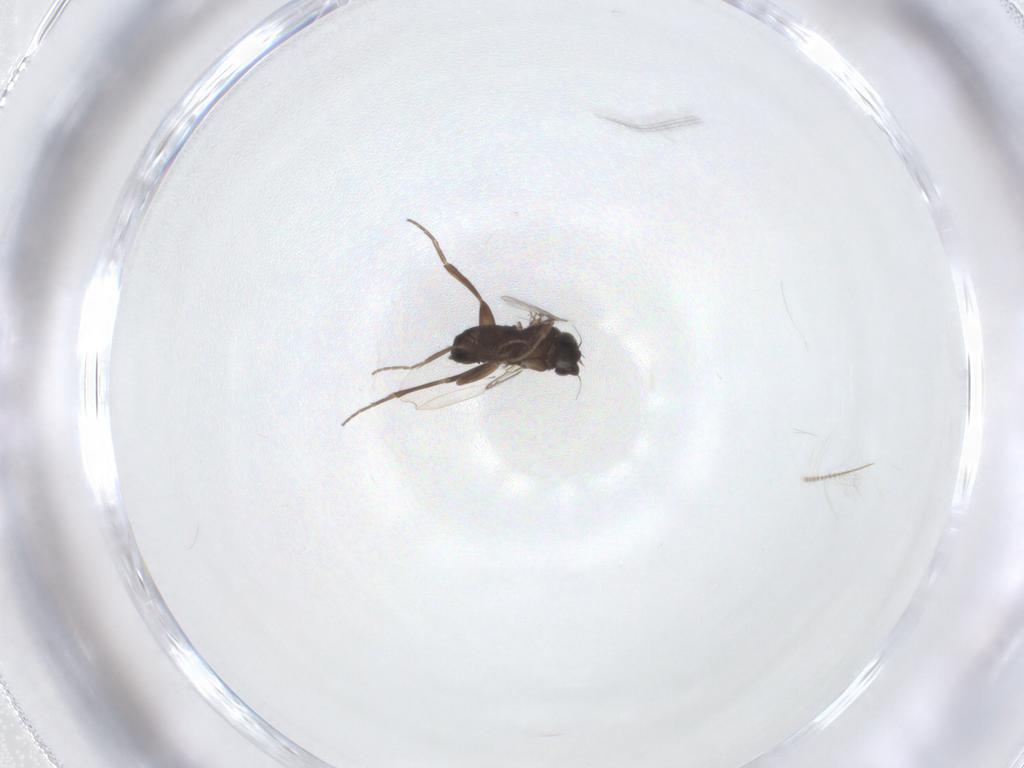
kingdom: Animalia
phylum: Arthropoda
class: Insecta
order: Diptera
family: Phoridae
